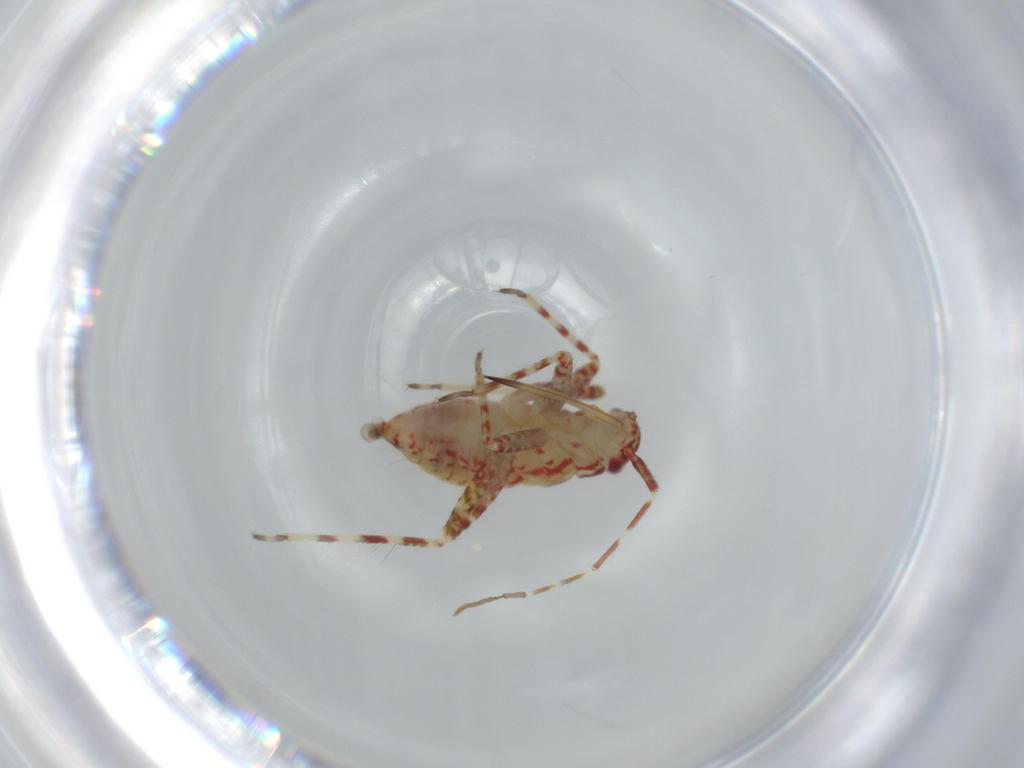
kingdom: Animalia
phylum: Arthropoda
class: Insecta
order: Hemiptera
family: Miridae
